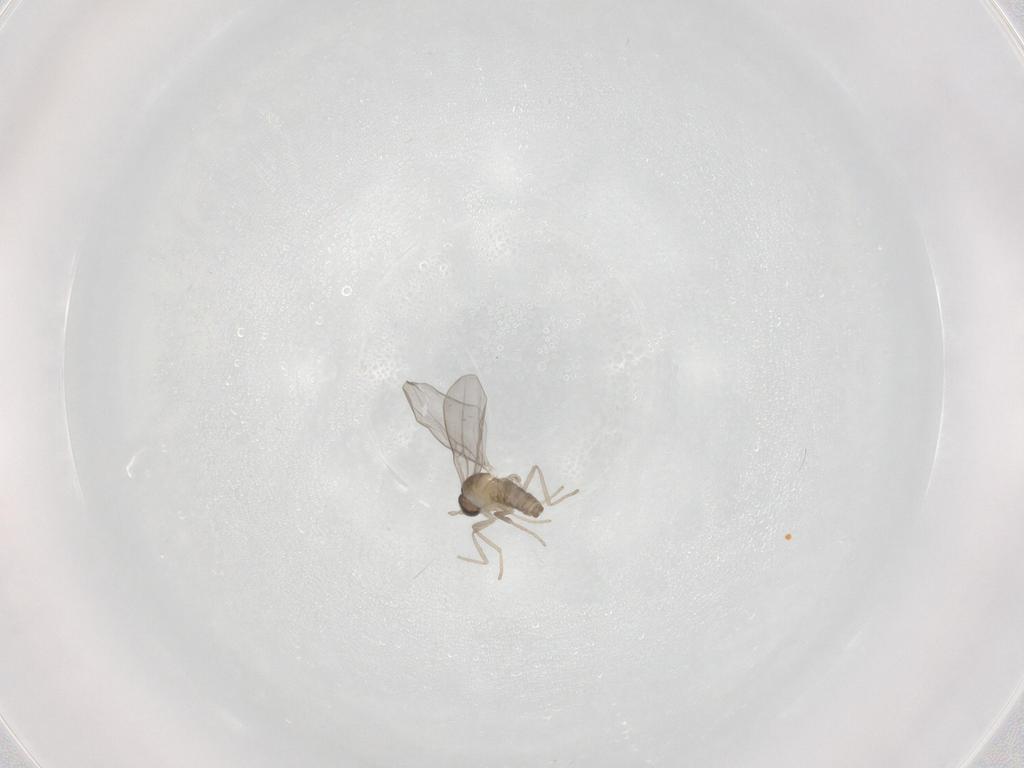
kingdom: Animalia
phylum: Arthropoda
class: Insecta
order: Diptera
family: Cecidomyiidae
